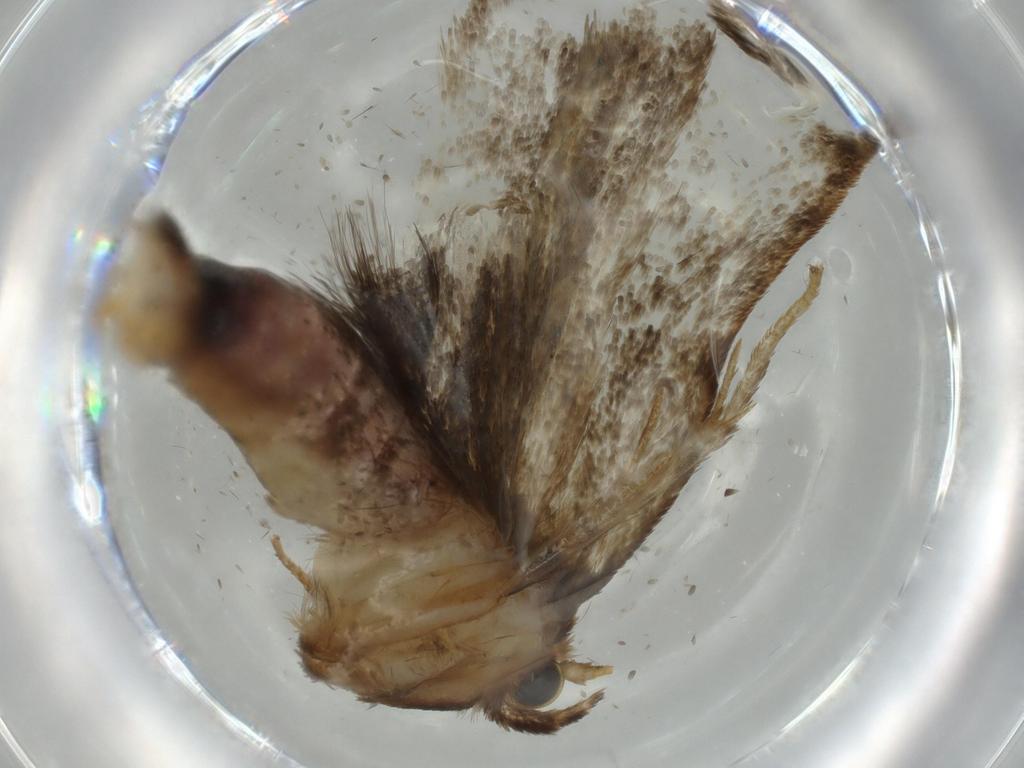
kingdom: Animalia
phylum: Arthropoda
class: Insecta
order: Lepidoptera
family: Tineidae
